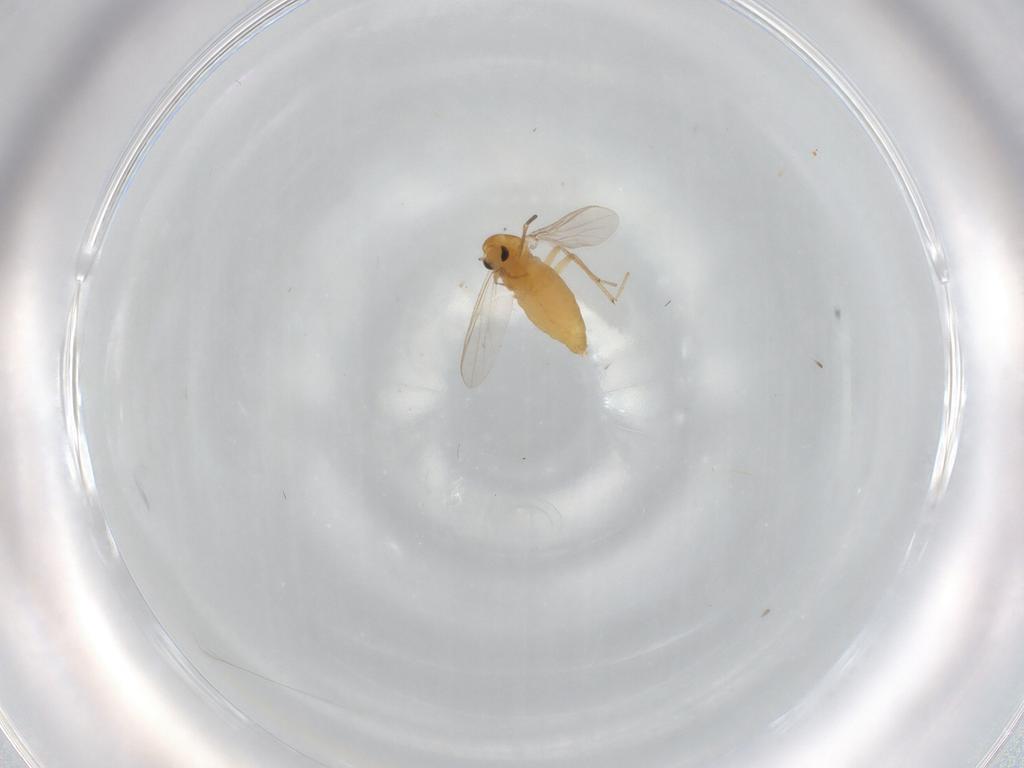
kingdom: Animalia
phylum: Arthropoda
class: Insecta
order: Diptera
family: Chironomidae
